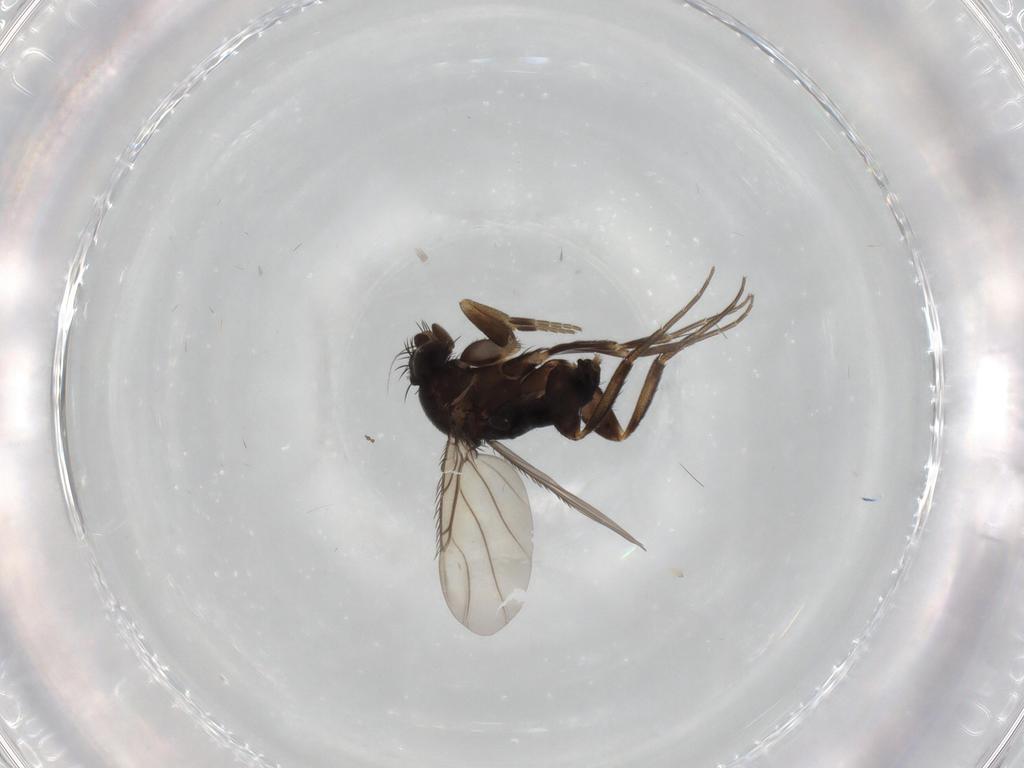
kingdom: Animalia
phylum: Arthropoda
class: Insecta
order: Diptera
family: Phoridae
